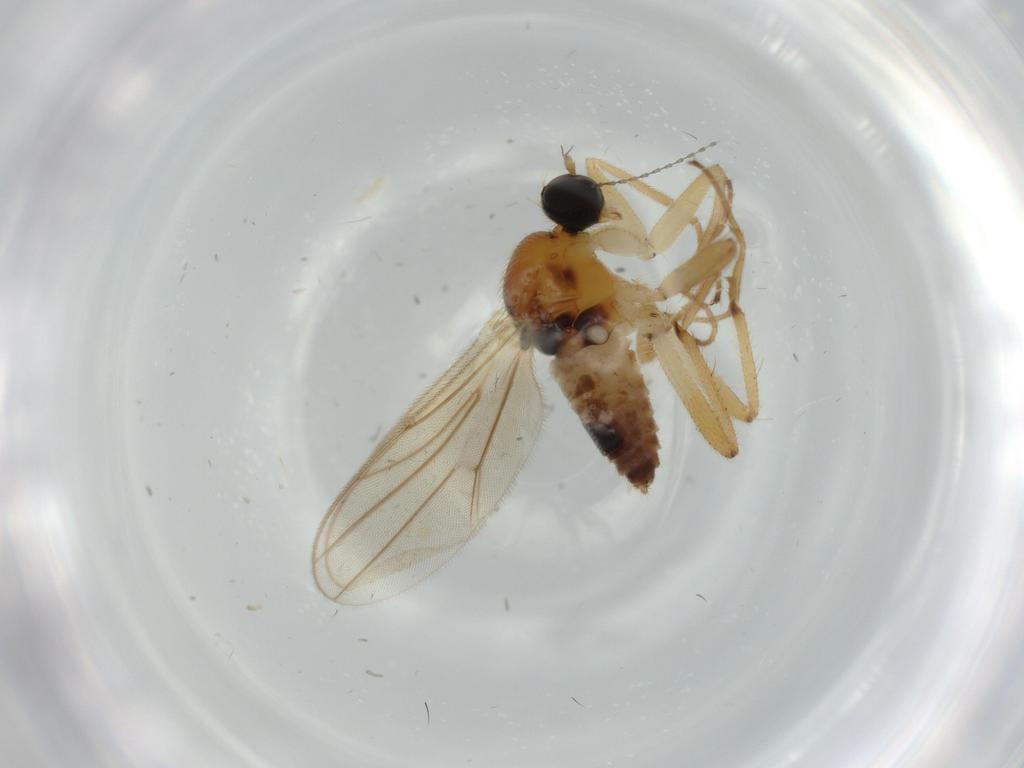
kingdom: Animalia
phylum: Arthropoda
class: Insecta
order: Diptera
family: Hybotidae
